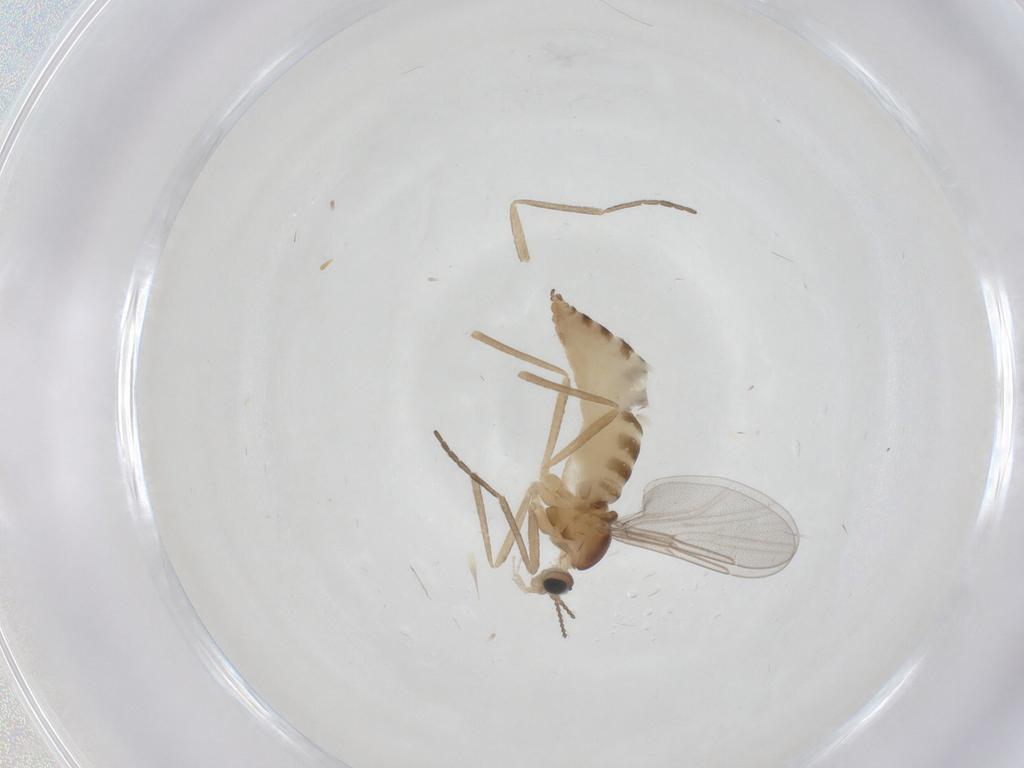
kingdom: Animalia
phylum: Arthropoda
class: Insecta
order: Diptera
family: Cecidomyiidae
